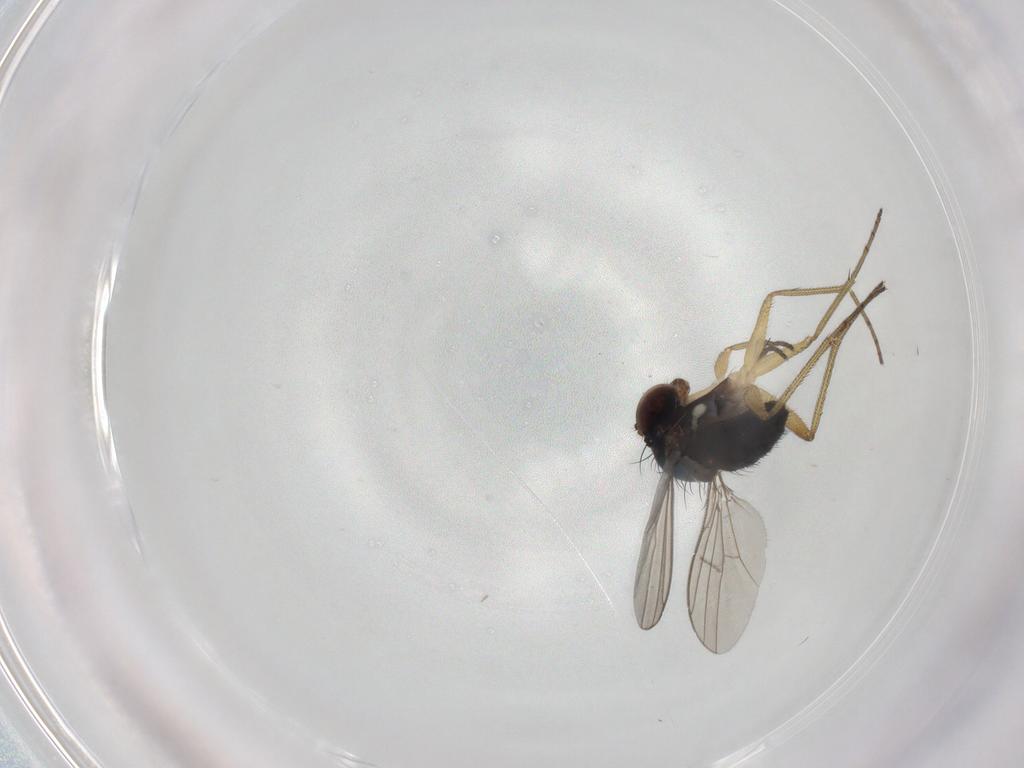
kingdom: Animalia
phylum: Arthropoda
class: Insecta
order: Diptera
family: Dolichopodidae
